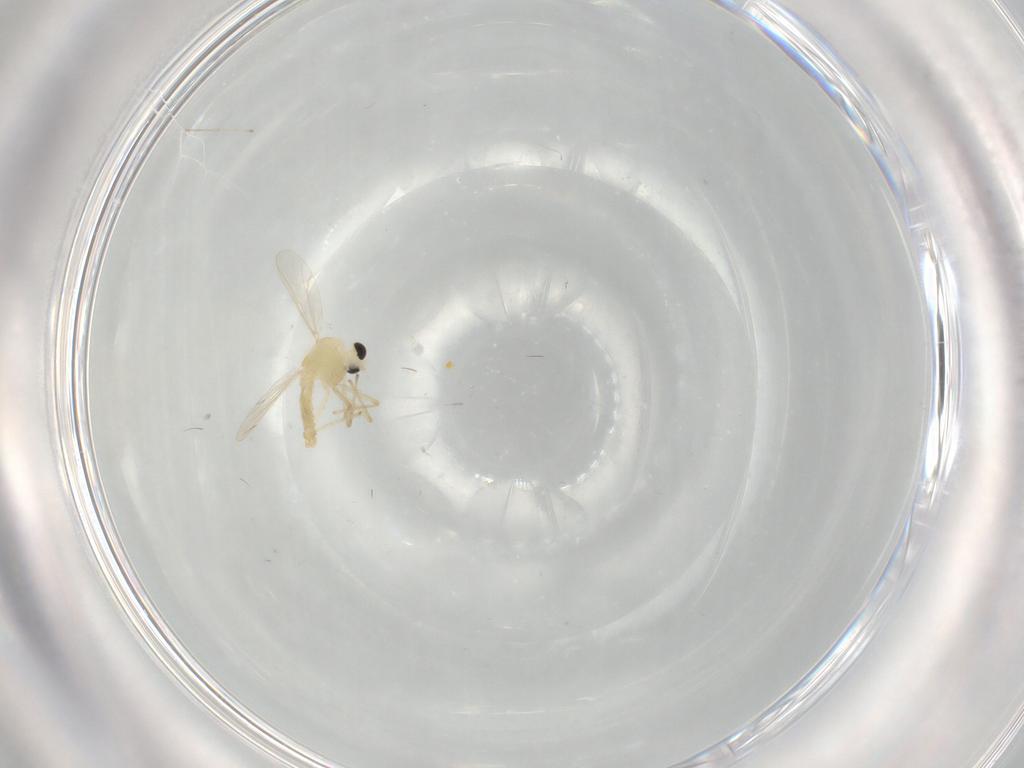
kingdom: Animalia
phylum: Arthropoda
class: Insecta
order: Diptera
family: Chironomidae
